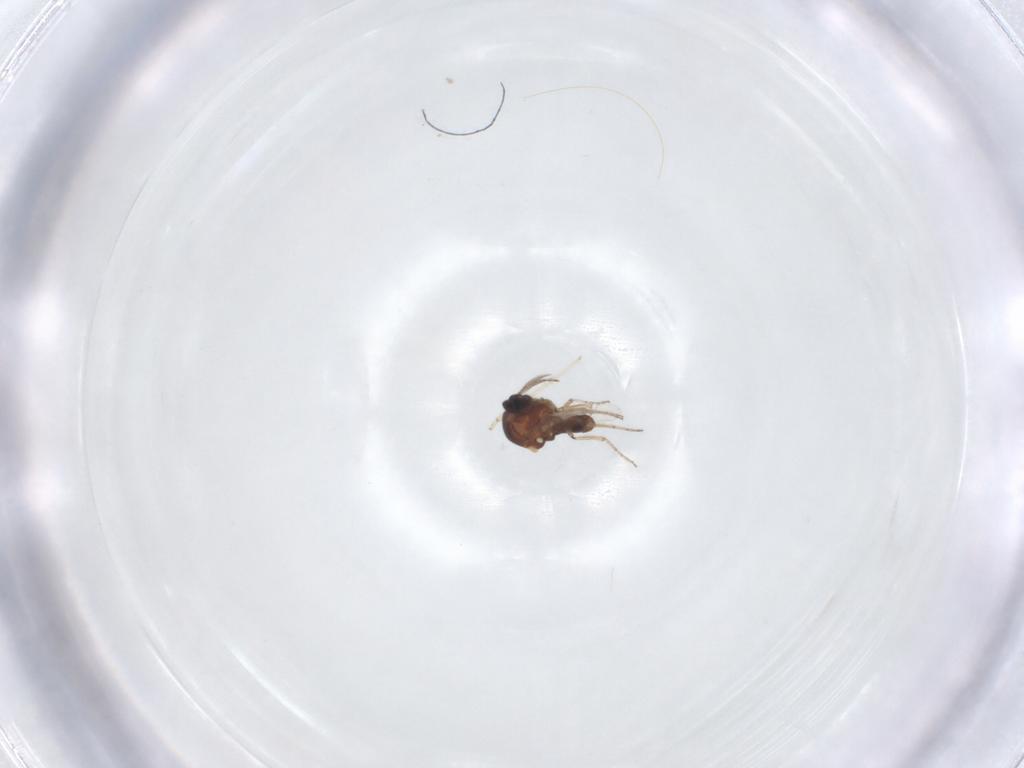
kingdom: Animalia
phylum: Arthropoda
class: Insecta
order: Diptera
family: Ceratopogonidae
